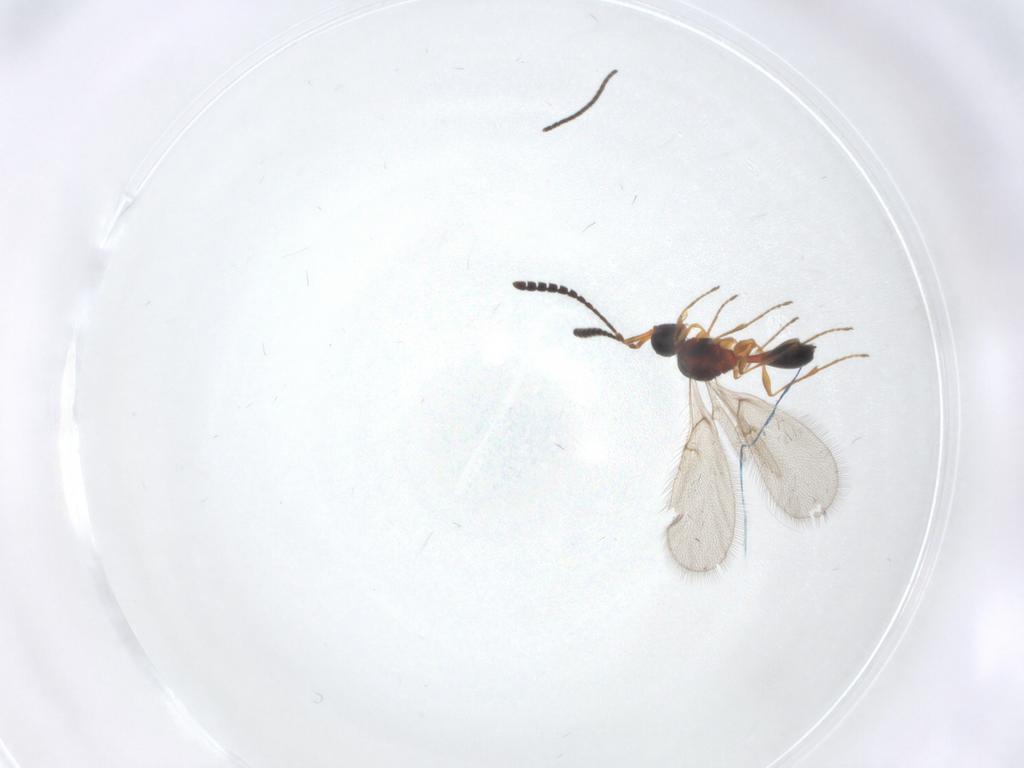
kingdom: Animalia
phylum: Arthropoda
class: Insecta
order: Hymenoptera
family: Diapriidae
